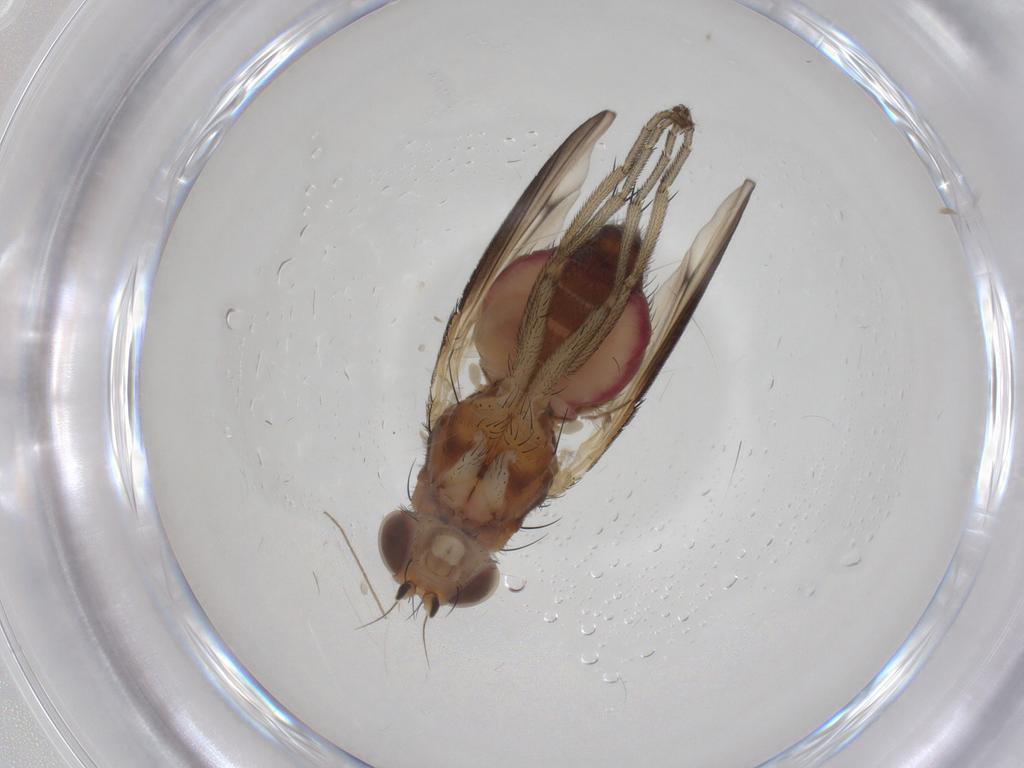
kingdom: Animalia
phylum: Arthropoda
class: Insecta
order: Diptera
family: Heleomyzidae
